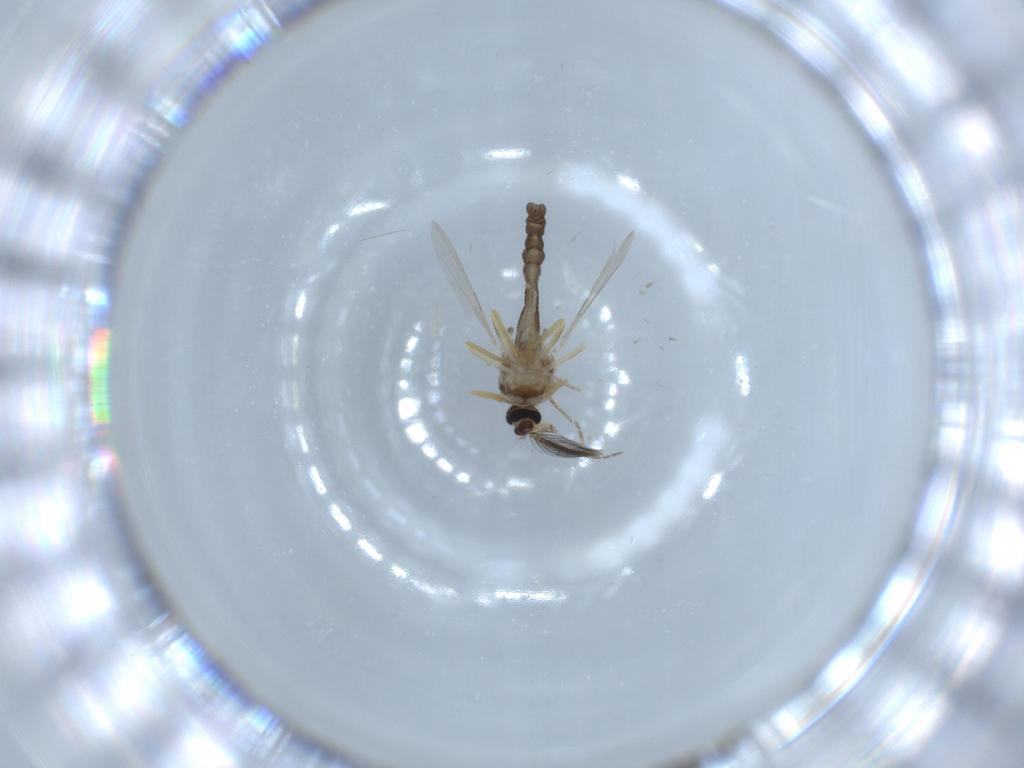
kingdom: Animalia
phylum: Arthropoda
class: Insecta
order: Diptera
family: Ceratopogonidae
